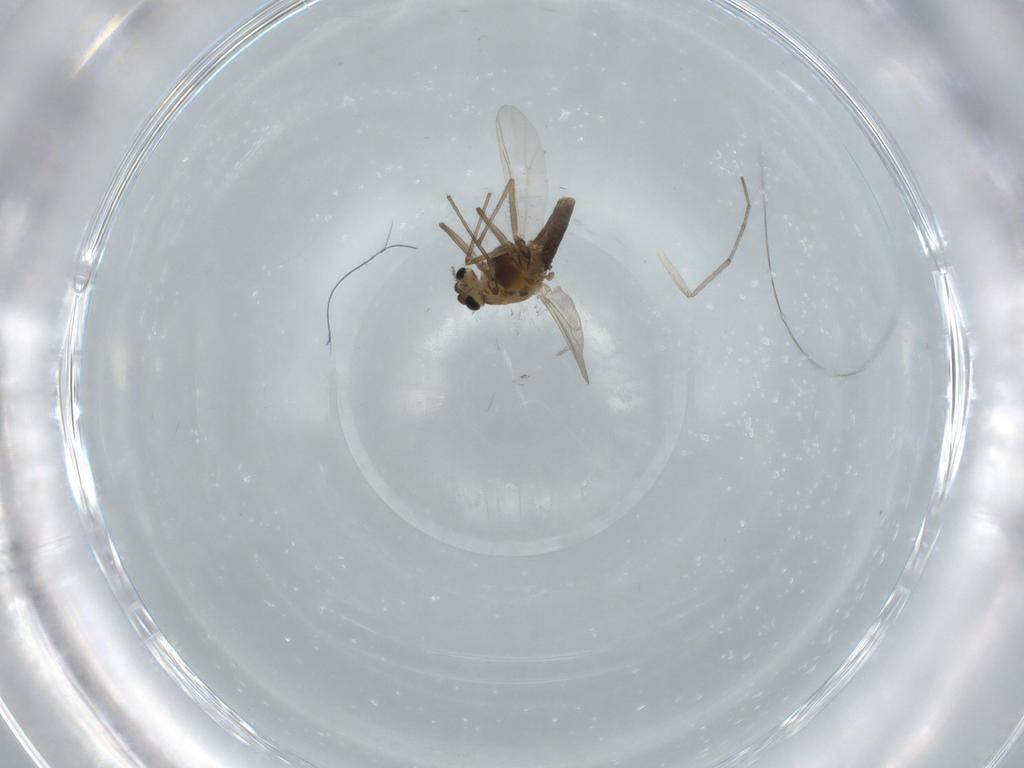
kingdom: Animalia
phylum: Arthropoda
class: Insecta
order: Diptera
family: Chironomidae
